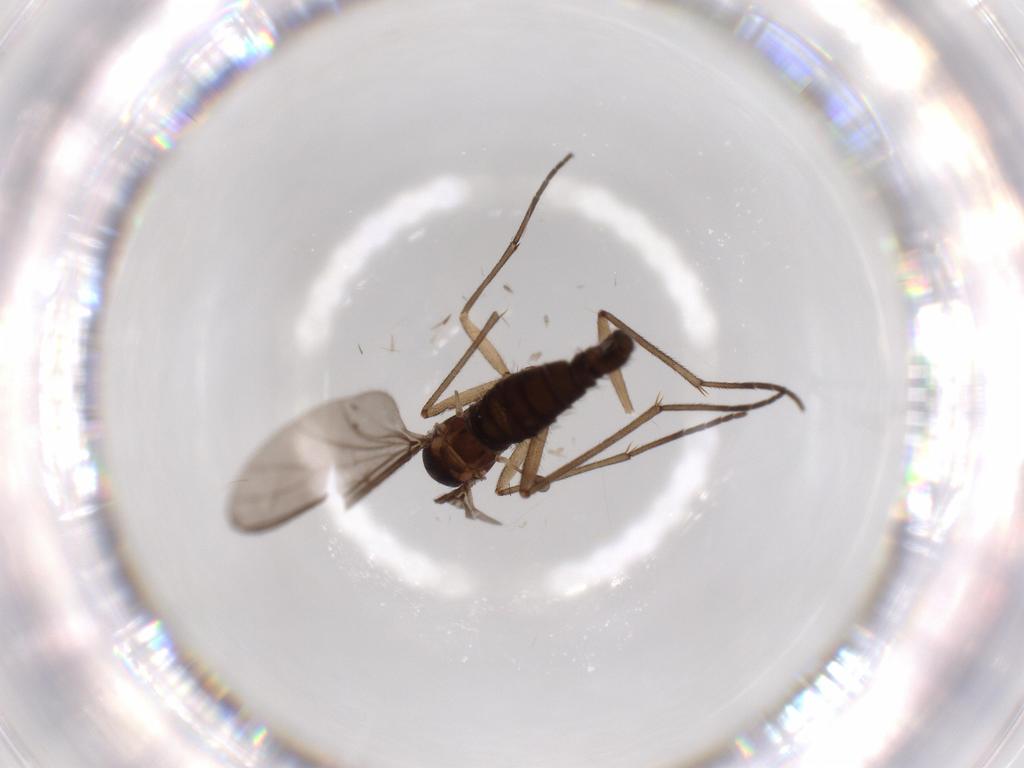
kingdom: Animalia
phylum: Arthropoda
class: Insecta
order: Diptera
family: Sciaridae
